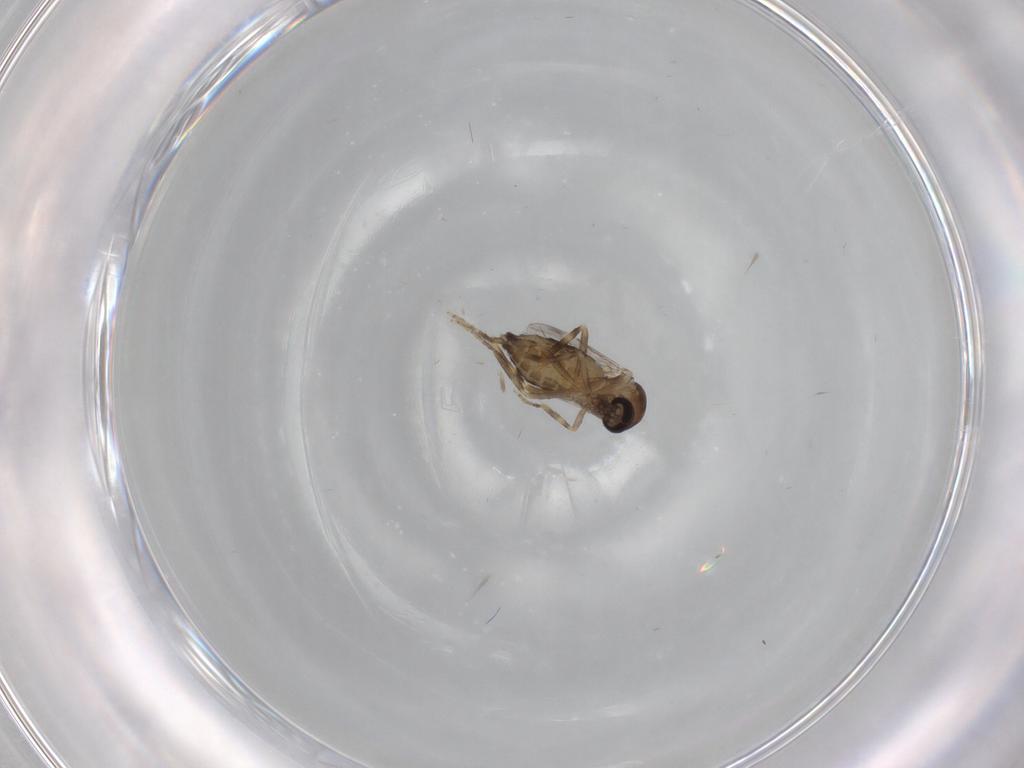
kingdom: Animalia
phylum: Arthropoda
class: Insecta
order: Diptera
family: Ceratopogonidae
